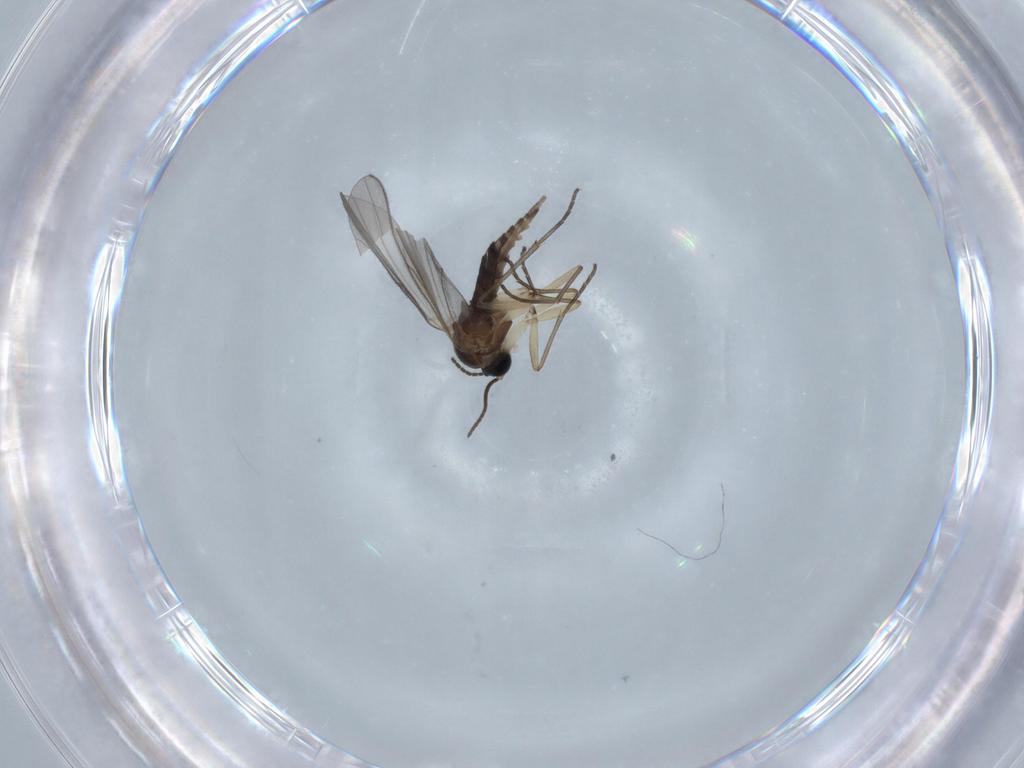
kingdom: Animalia
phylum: Arthropoda
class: Insecta
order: Diptera
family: Sciaridae
